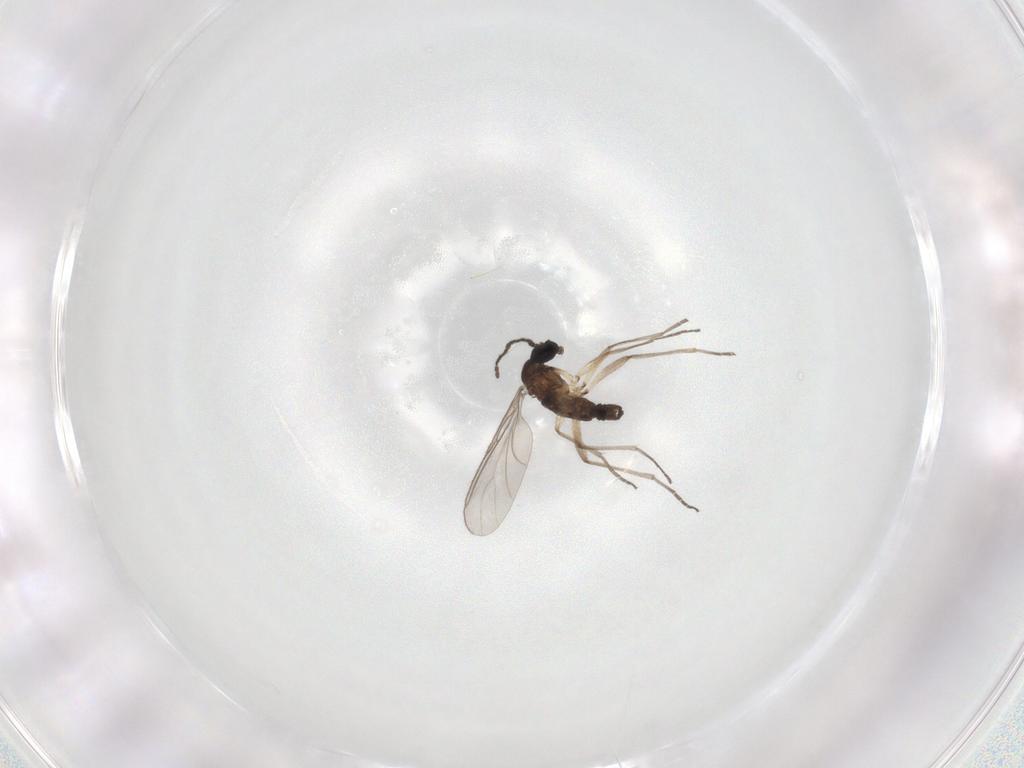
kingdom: Animalia
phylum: Arthropoda
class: Insecta
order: Diptera
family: Sciaridae
